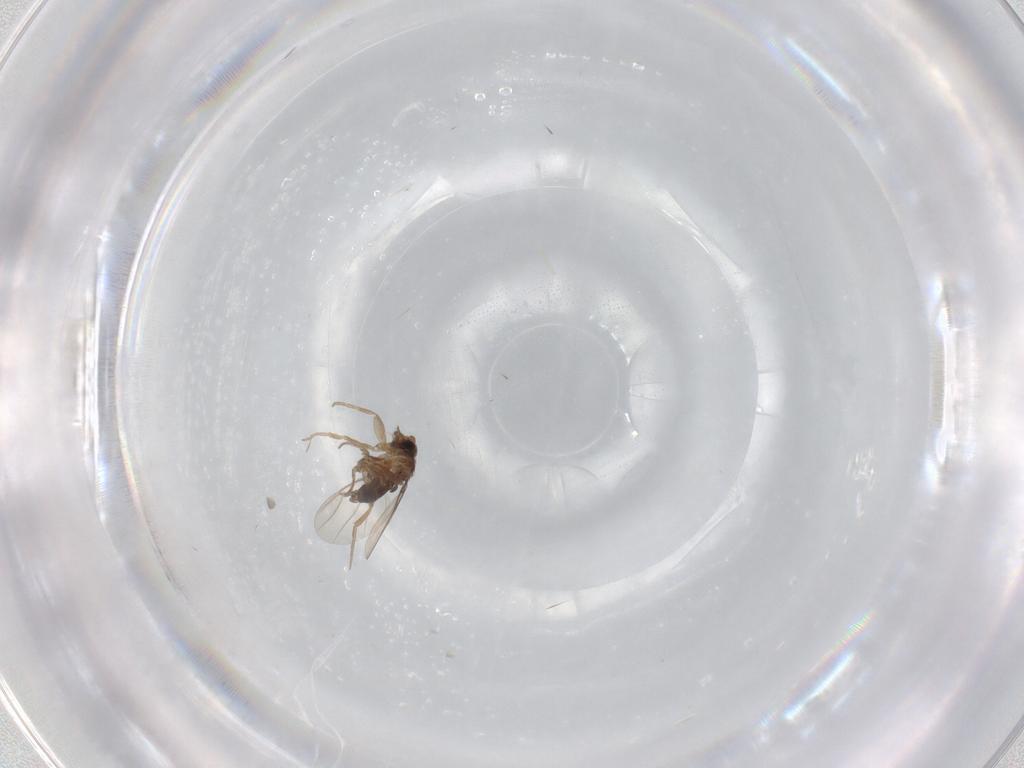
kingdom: Animalia
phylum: Arthropoda
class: Insecta
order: Diptera
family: Phoridae
